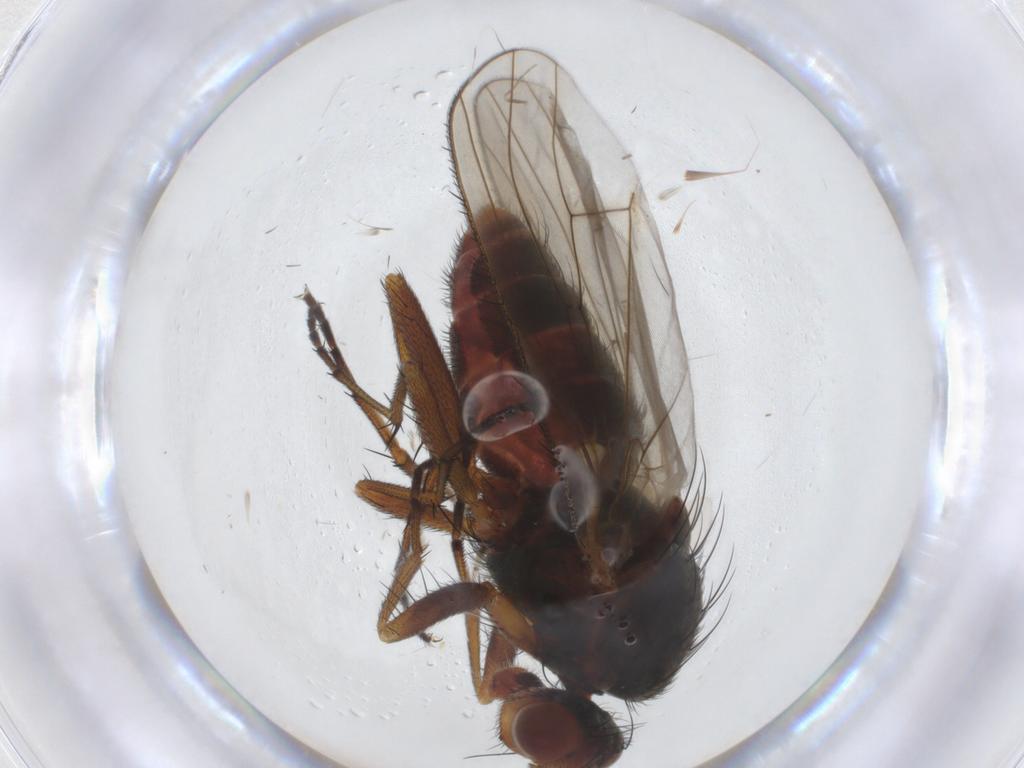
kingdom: Animalia
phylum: Arthropoda
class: Insecta
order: Diptera
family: Heleomyzidae
